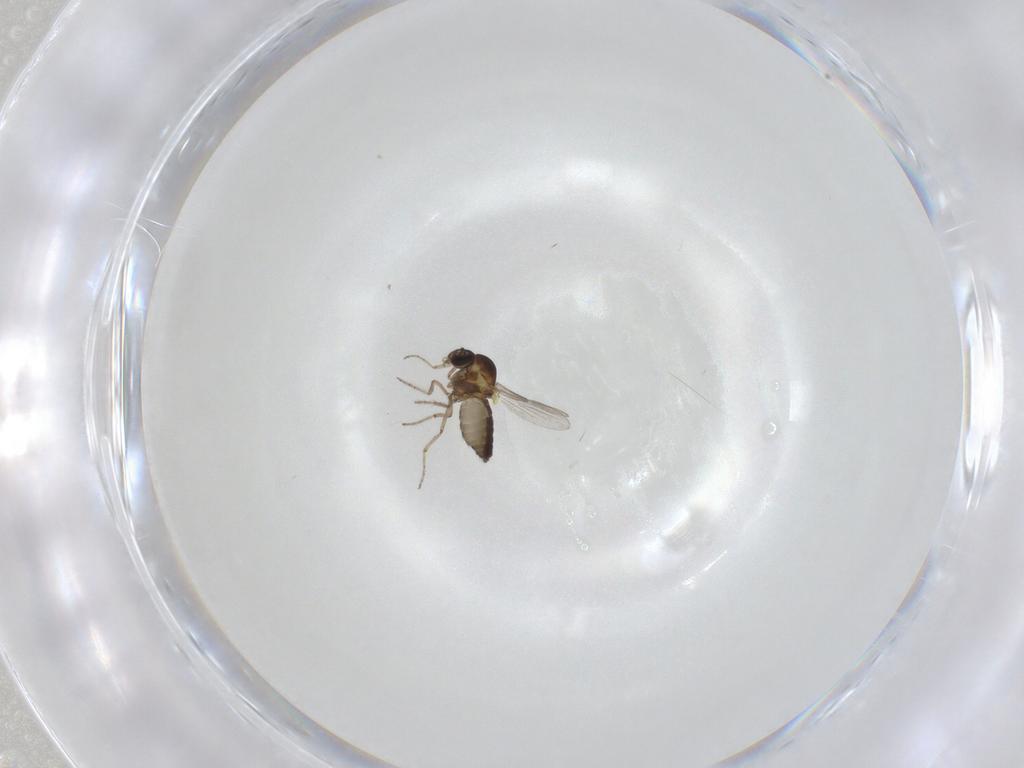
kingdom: Animalia
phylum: Arthropoda
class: Insecta
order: Diptera
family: Ceratopogonidae
